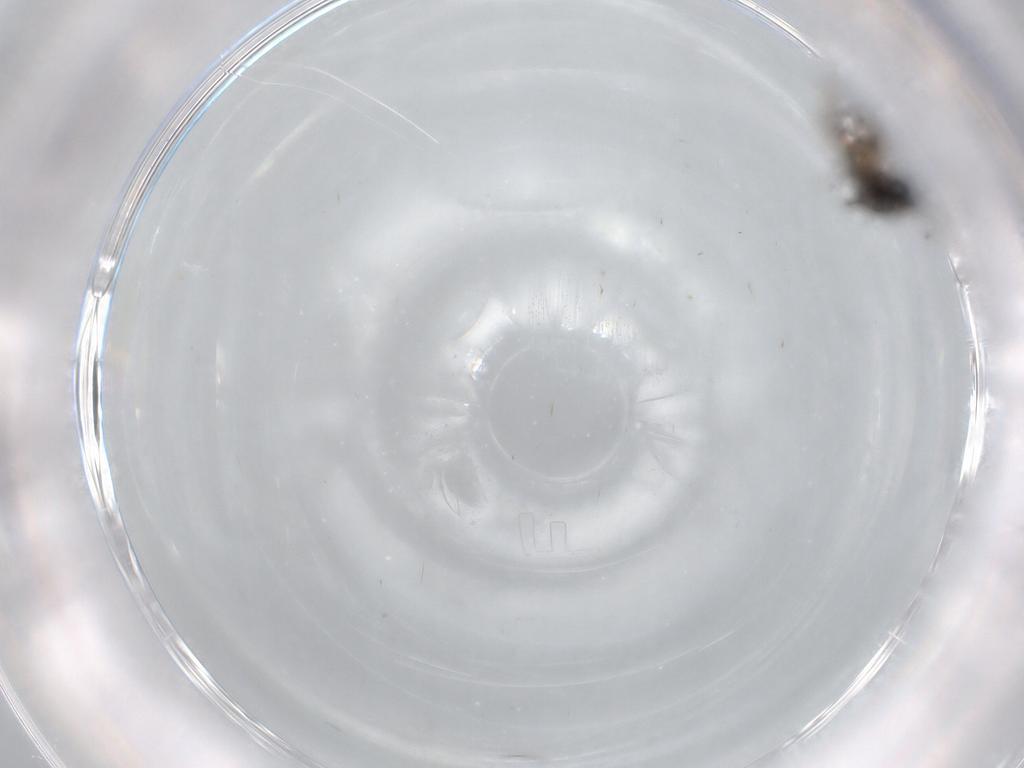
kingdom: Animalia
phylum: Arthropoda
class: Insecta
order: Diptera
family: Sciaridae
